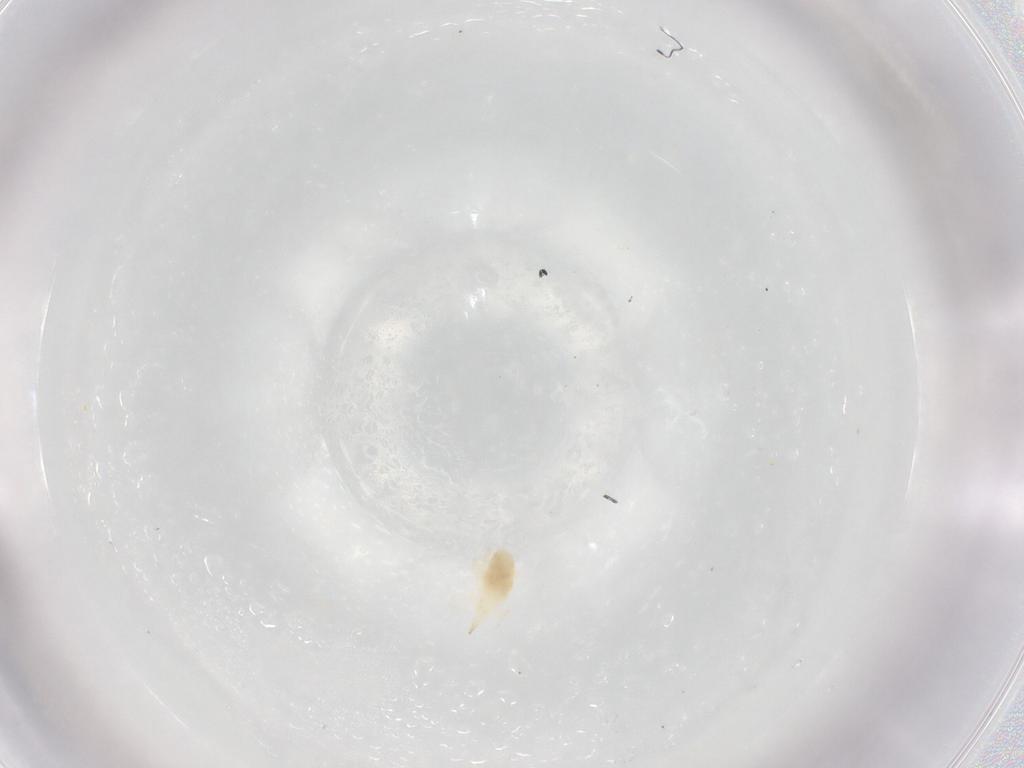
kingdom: Animalia
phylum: Arthropoda
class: Arachnida
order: Trombidiformes
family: Bdellidae
